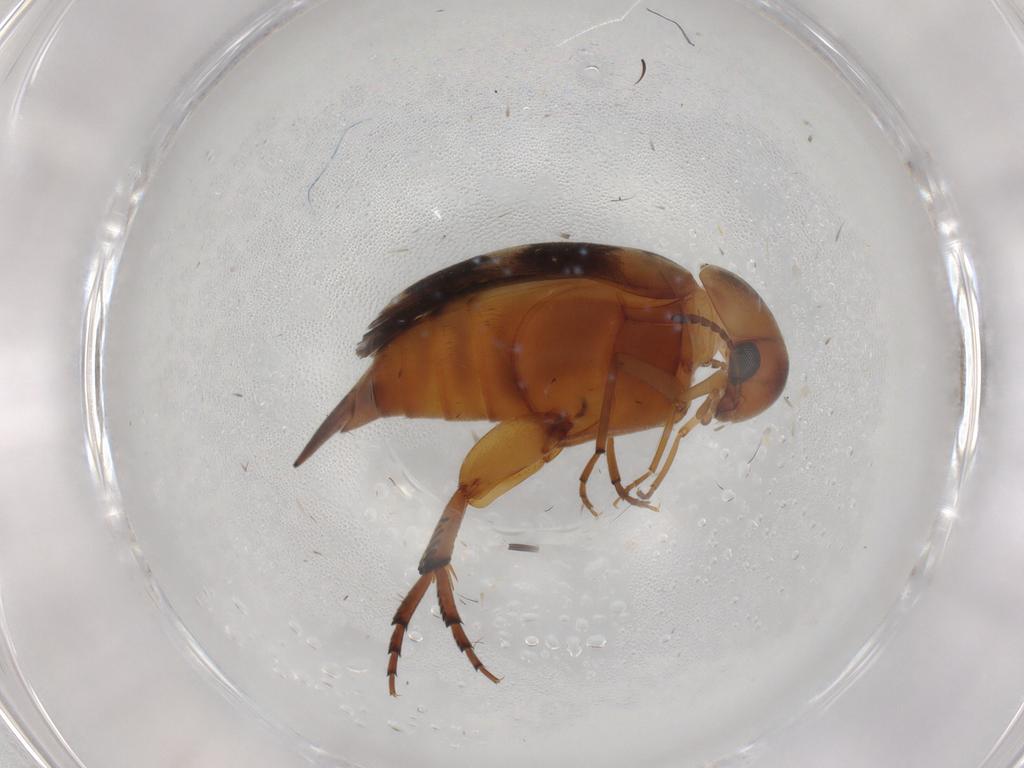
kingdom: Animalia
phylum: Arthropoda
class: Insecta
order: Coleoptera
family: Mordellidae
